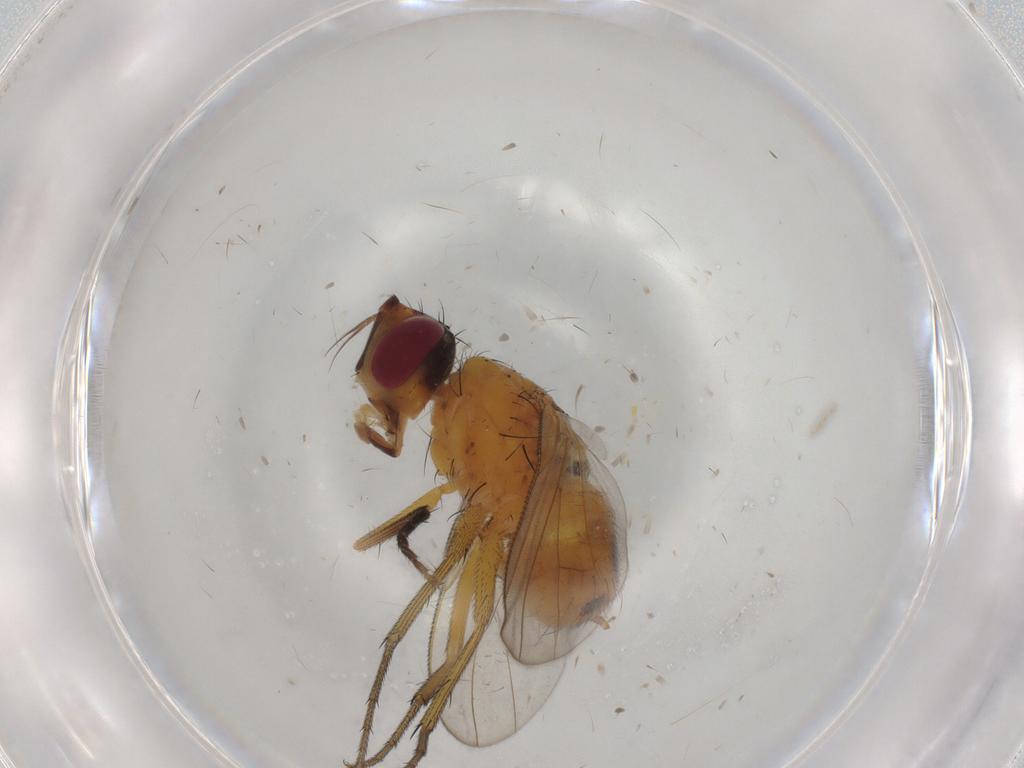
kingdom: Animalia
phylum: Arthropoda
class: Insecta
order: Diptera
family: Muscidae
